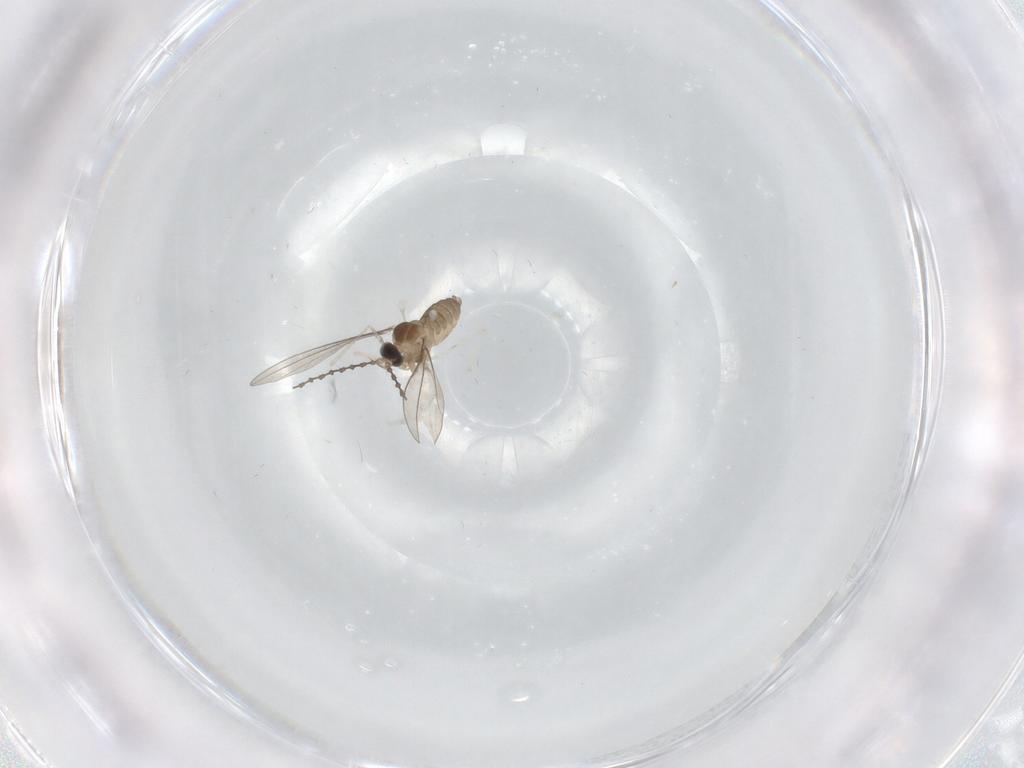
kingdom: Animalia
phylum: Arthropoda
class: Insecta
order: Diptera
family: Cecidomyiidae
